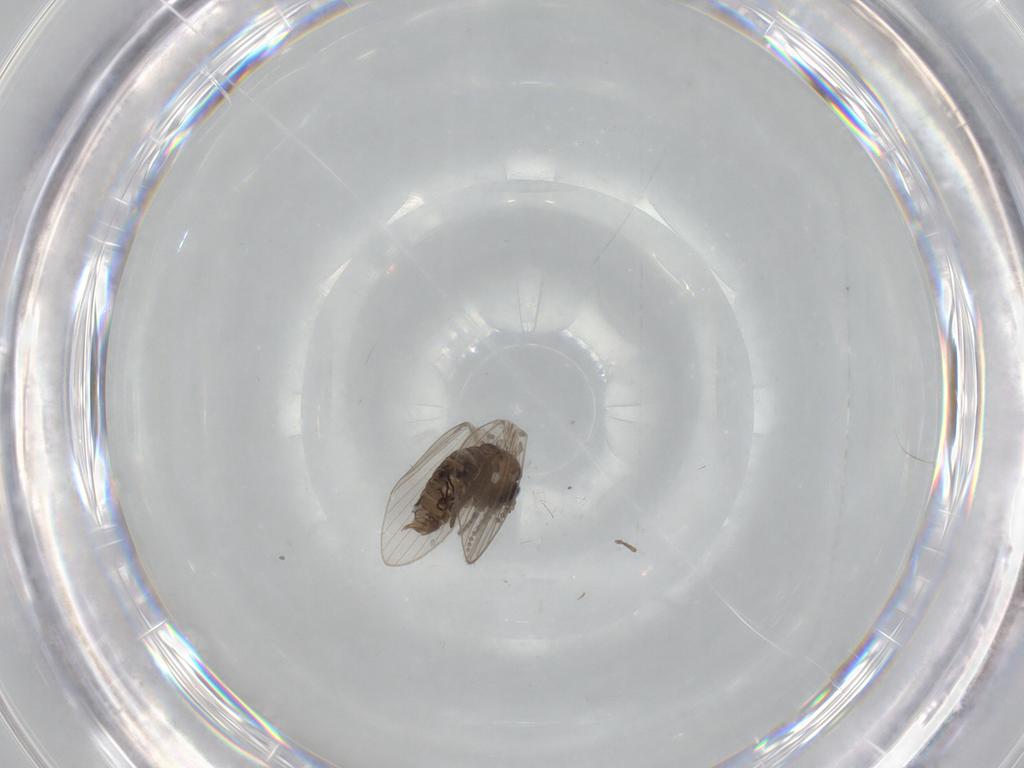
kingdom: Animalia
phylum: Arthropoda
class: Insecta
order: Diptera
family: Psychodidae
